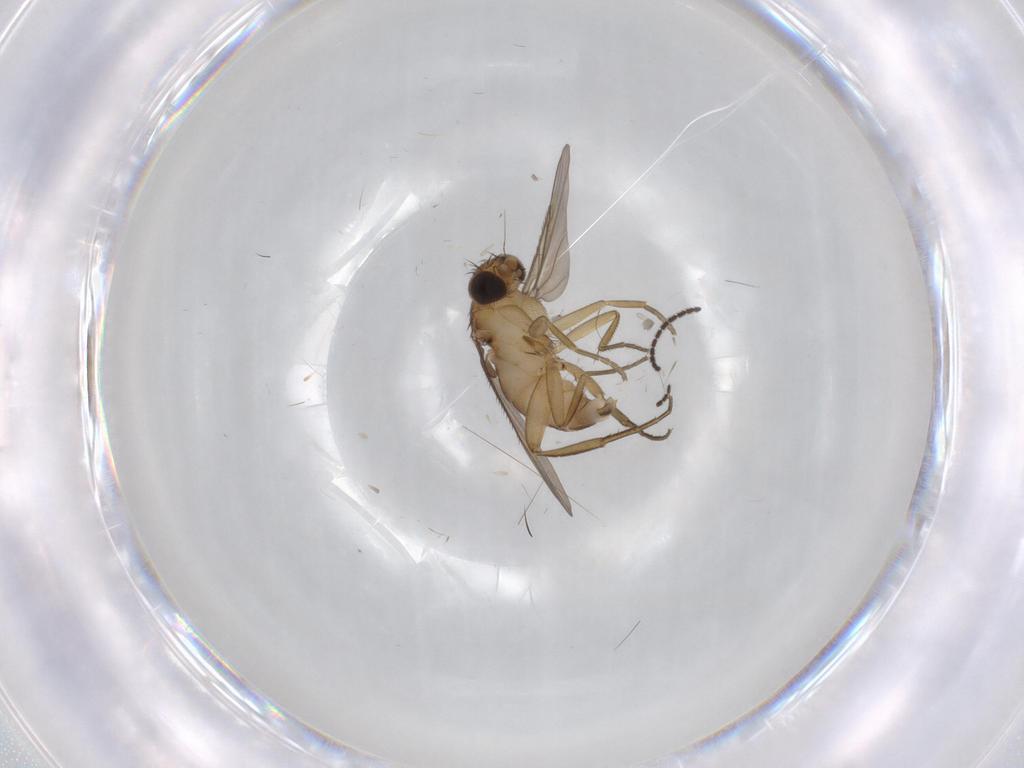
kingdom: Animalia
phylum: Arthropoda
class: Insecta
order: Diptera
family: Sciaridae
